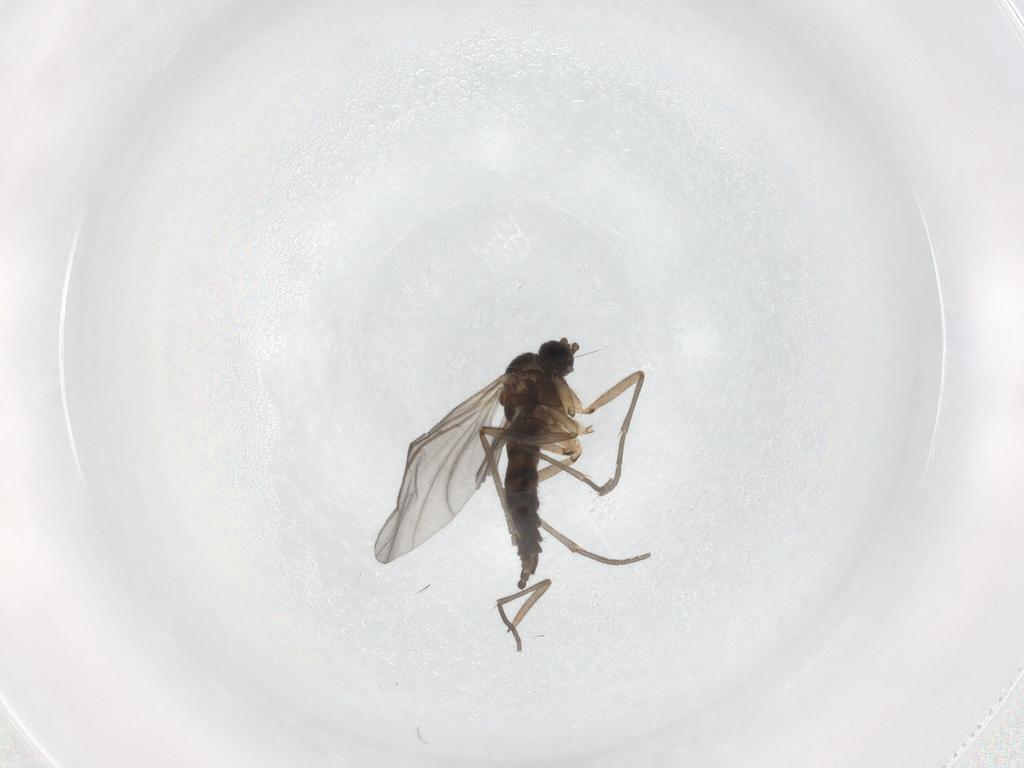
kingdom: Animalia
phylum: Arthropoda
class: Insecta
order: Diptera
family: Sciaridae
